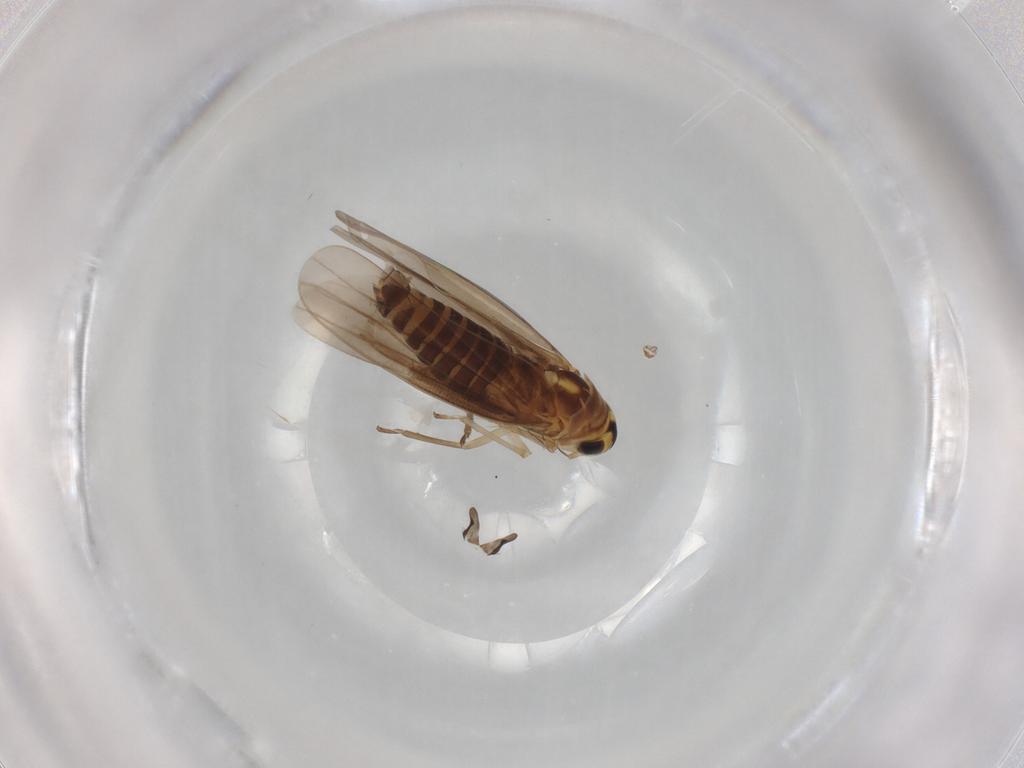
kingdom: Animalia
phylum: Arthropoda
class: Insecta
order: Hemiptera
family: Cicadellidae
